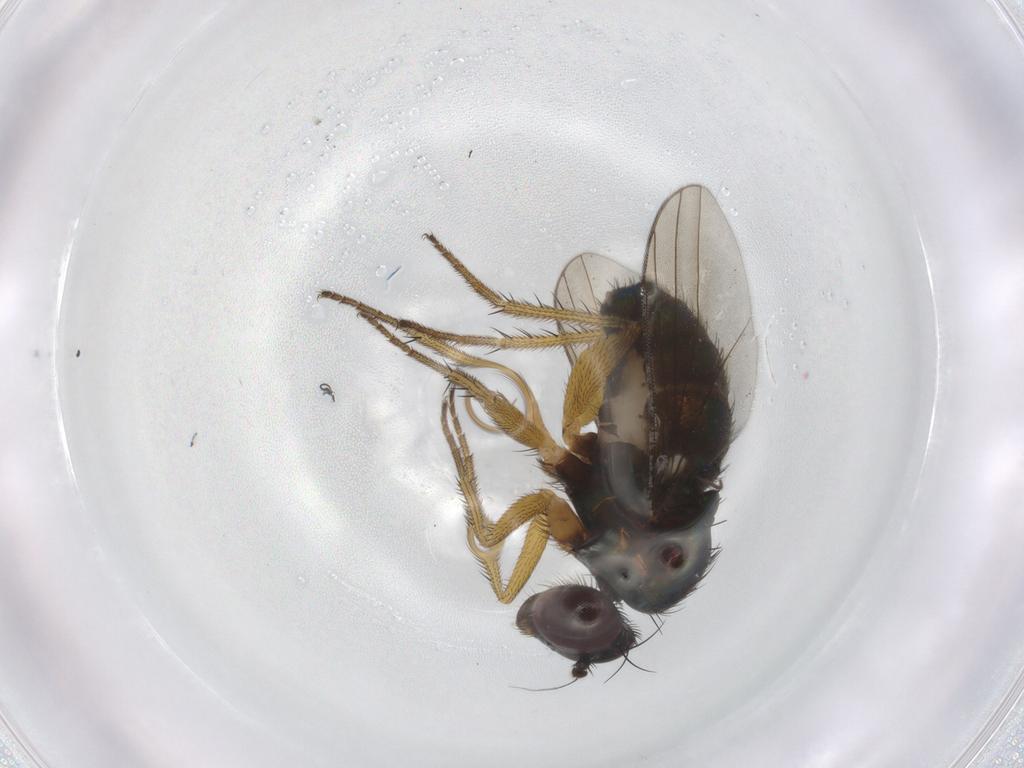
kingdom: Animalia
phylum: Arthropoda
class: Insecta
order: Diptera
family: Dolichopodidae
